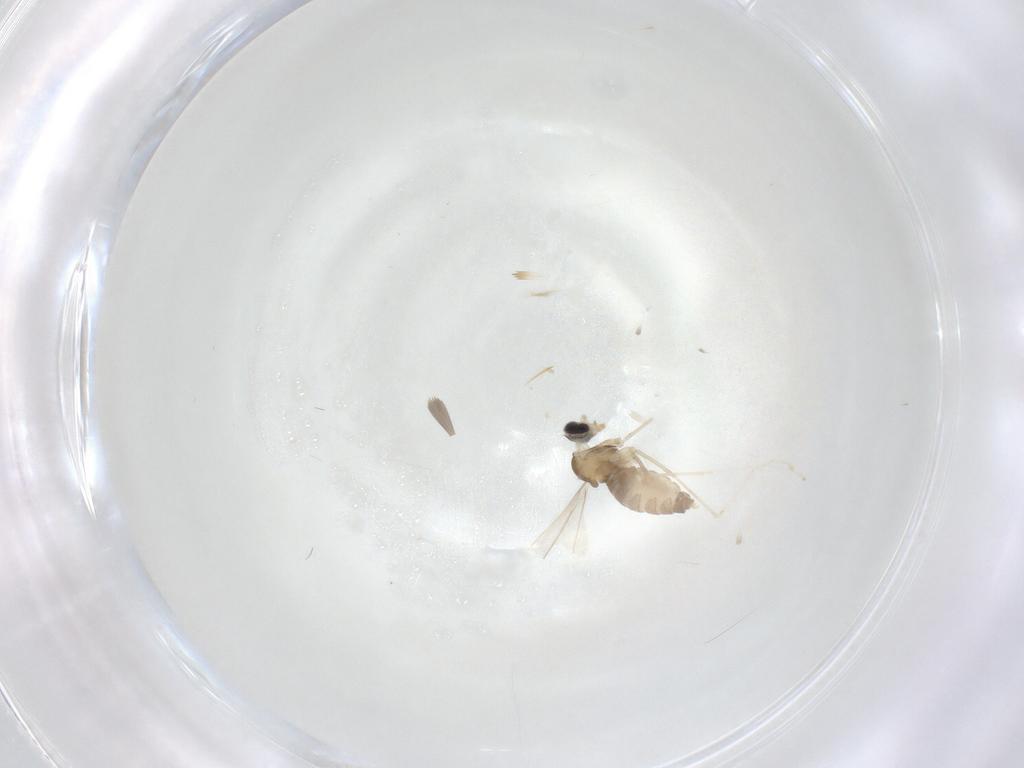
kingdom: Animalia
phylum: Arthropoda
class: Insecta
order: Diptera
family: Cecidomyiidae
